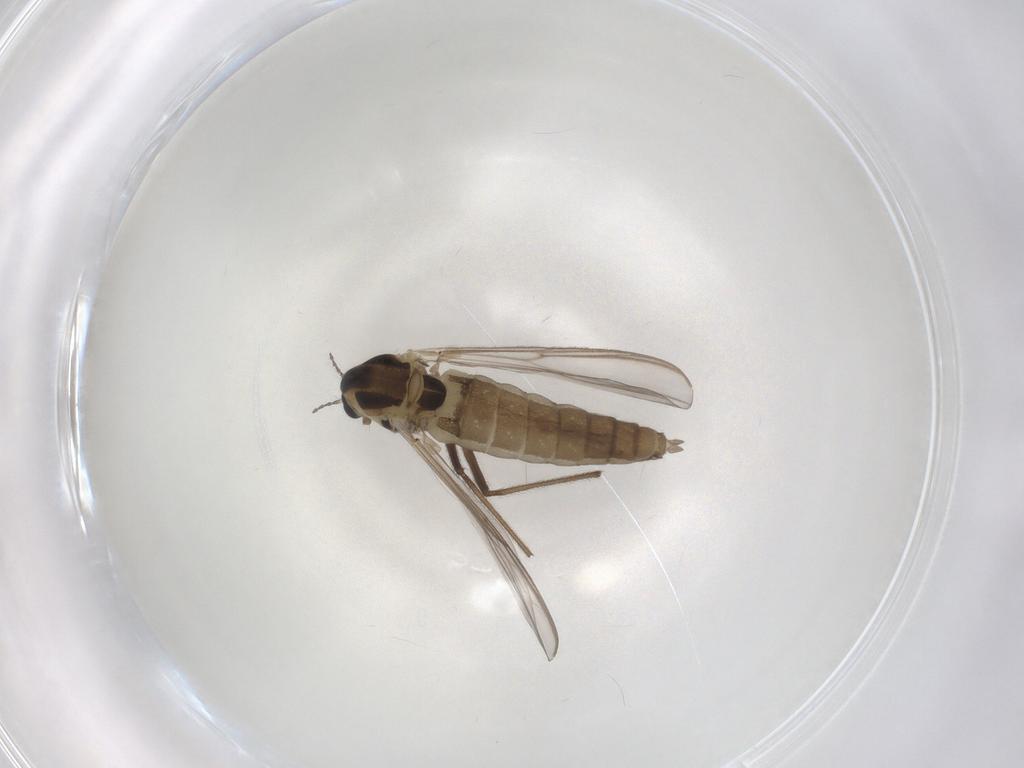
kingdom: Animalia
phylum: Arthropoda
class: Insecta
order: Diptera
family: Chironomidae
